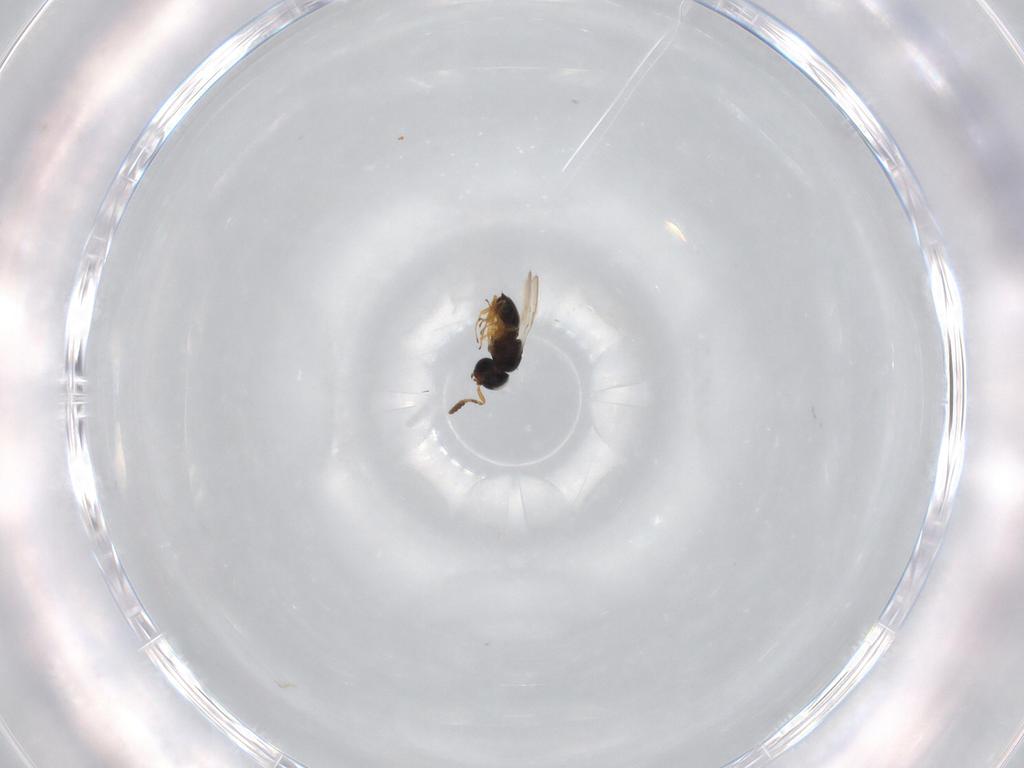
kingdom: Animalia
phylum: Arthropoda
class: Insecta
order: Hymenoptera
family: Scelionidae
